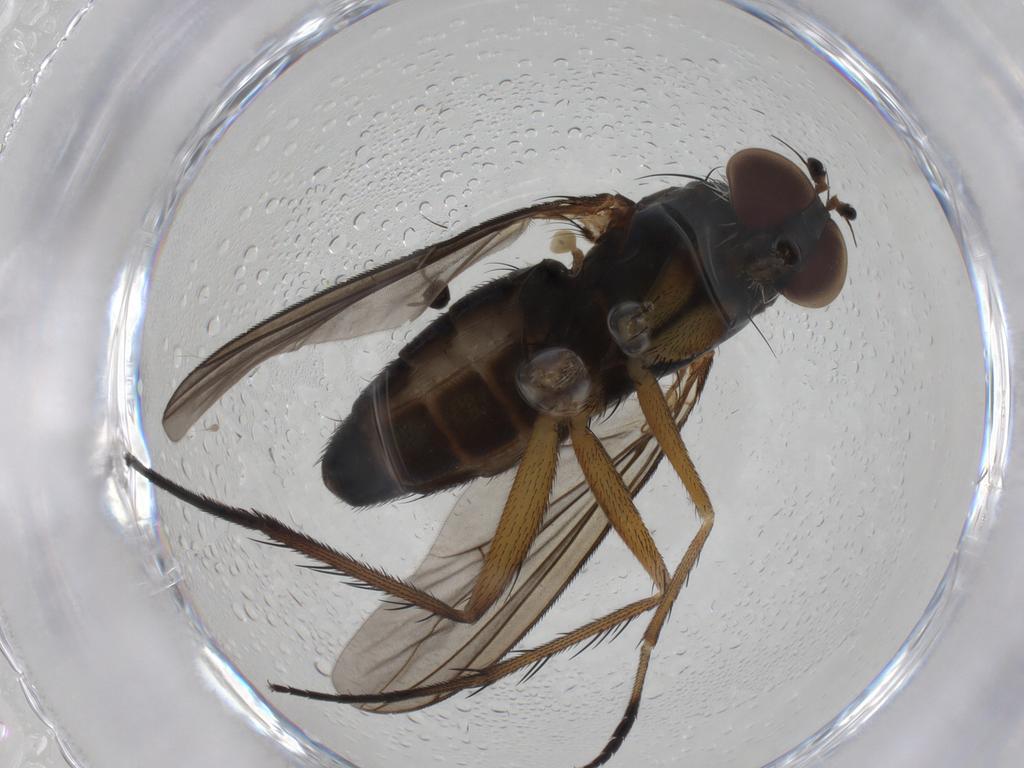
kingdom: Animalia
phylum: Arthropoda
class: Insecta
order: Diptera
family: Dolichopodidae
